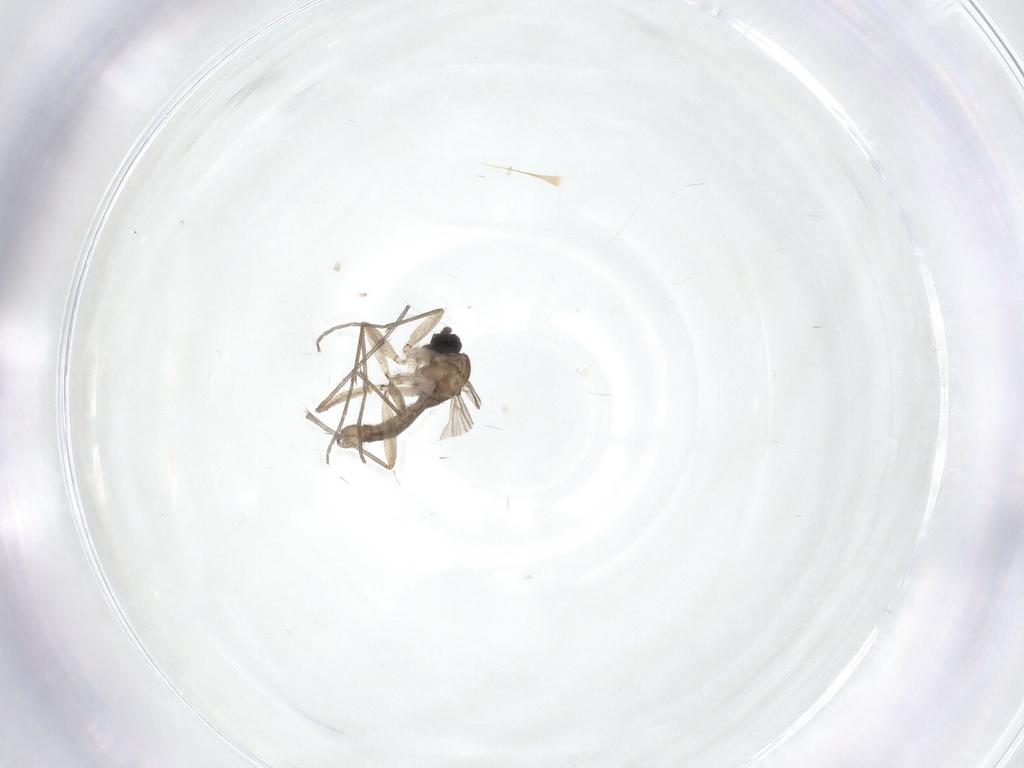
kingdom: Animalia
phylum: Arthropoda
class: Insecta
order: Diptera
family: Sciaridae
